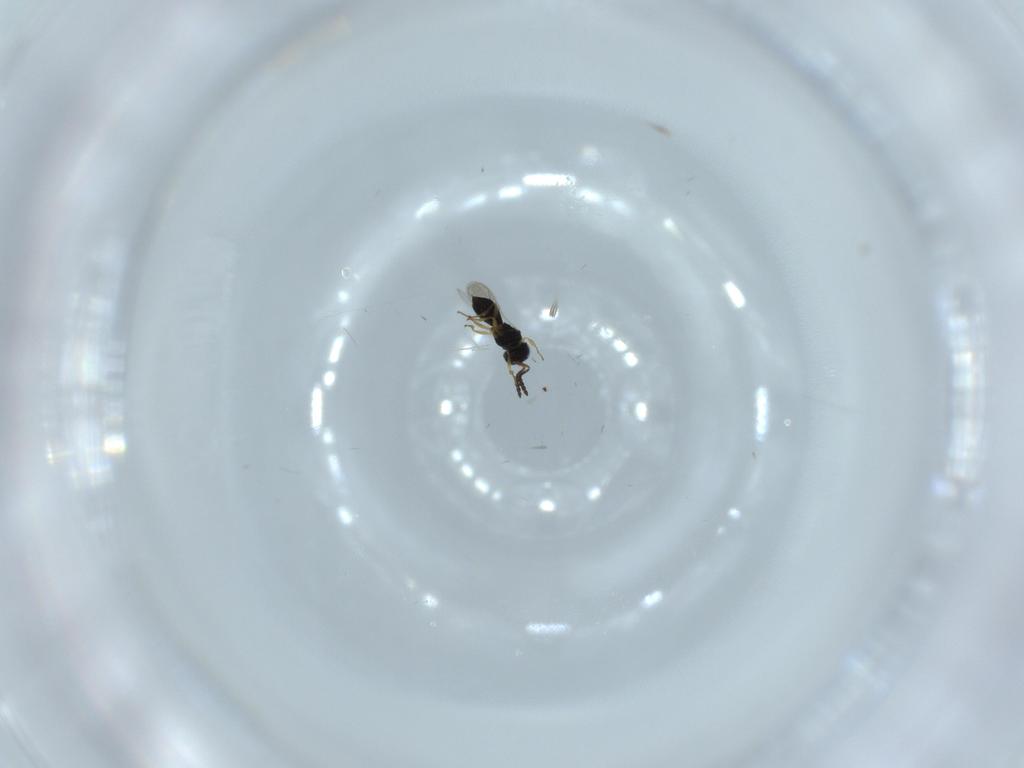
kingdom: Animalia
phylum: Arthropoda
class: Insecta
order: Hymenoptera
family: Scelionidae
